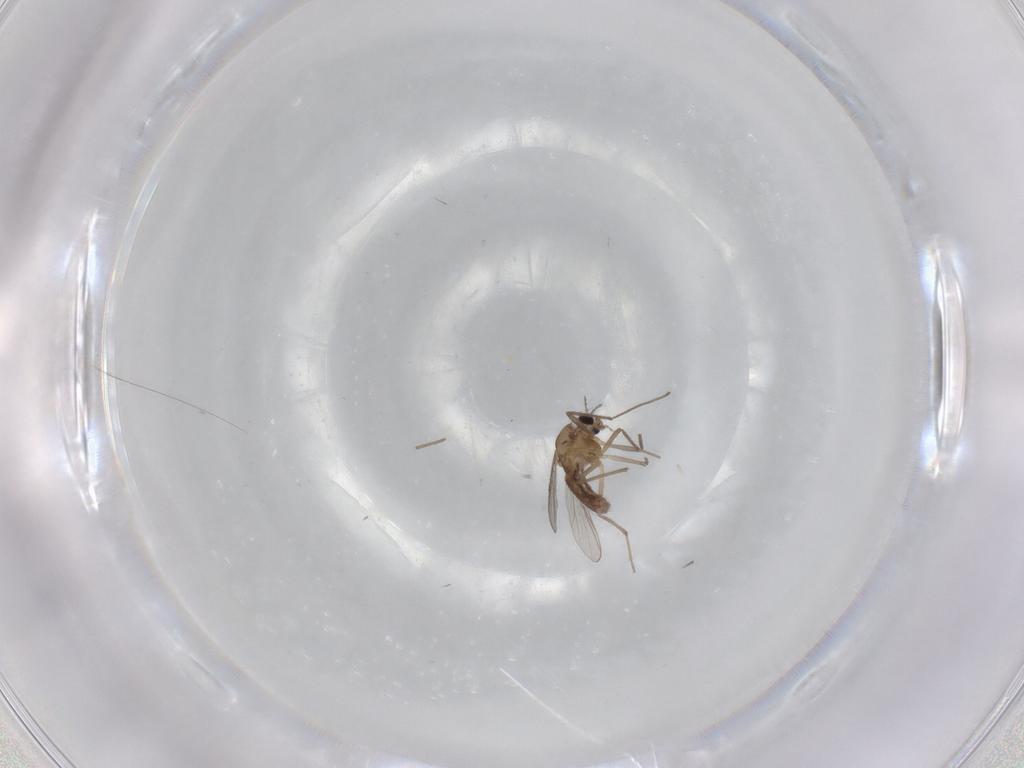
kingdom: Animalia
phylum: Arthropoda
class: Insecta
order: Diptera
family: Chironomidae
